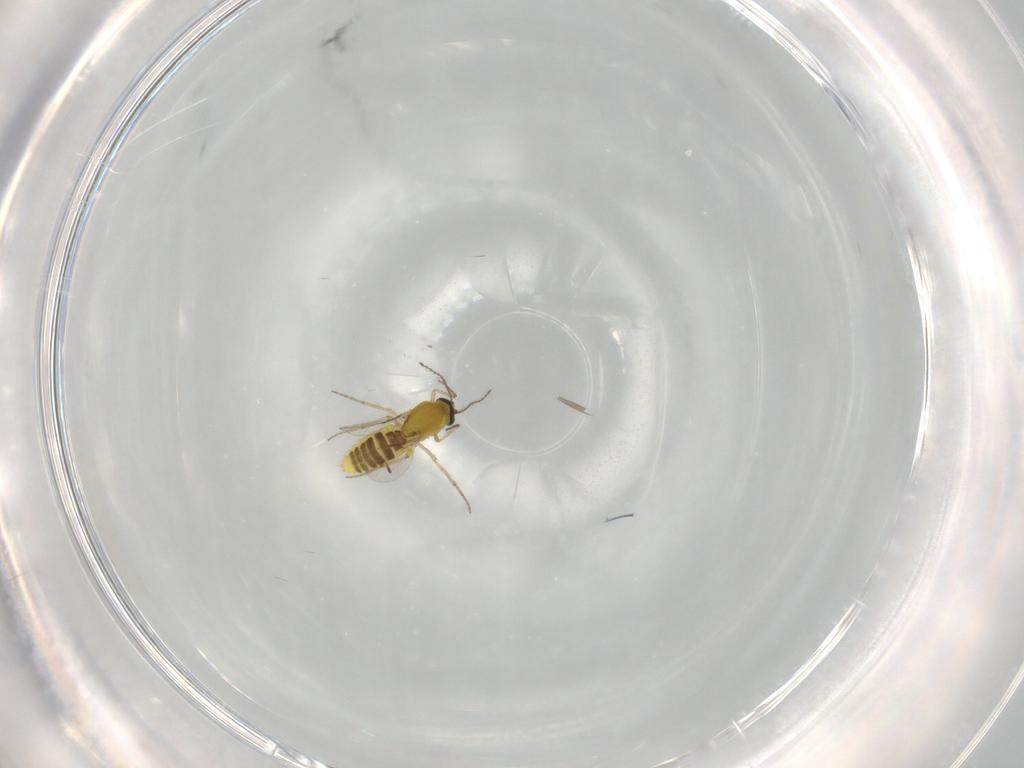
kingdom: Animalia
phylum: Arthropoda
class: Insecta
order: Diptera
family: Ceratopogonidae
